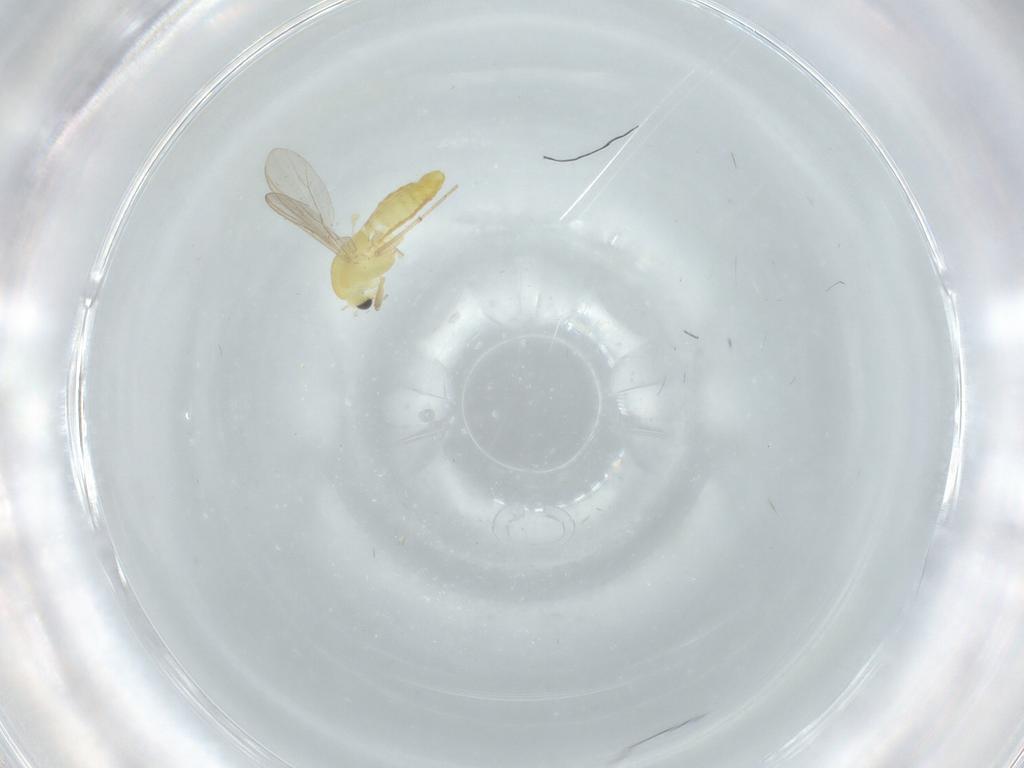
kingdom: Animalia
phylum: Arthropoda
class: Insecta
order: Diptera
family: Chironomidae
